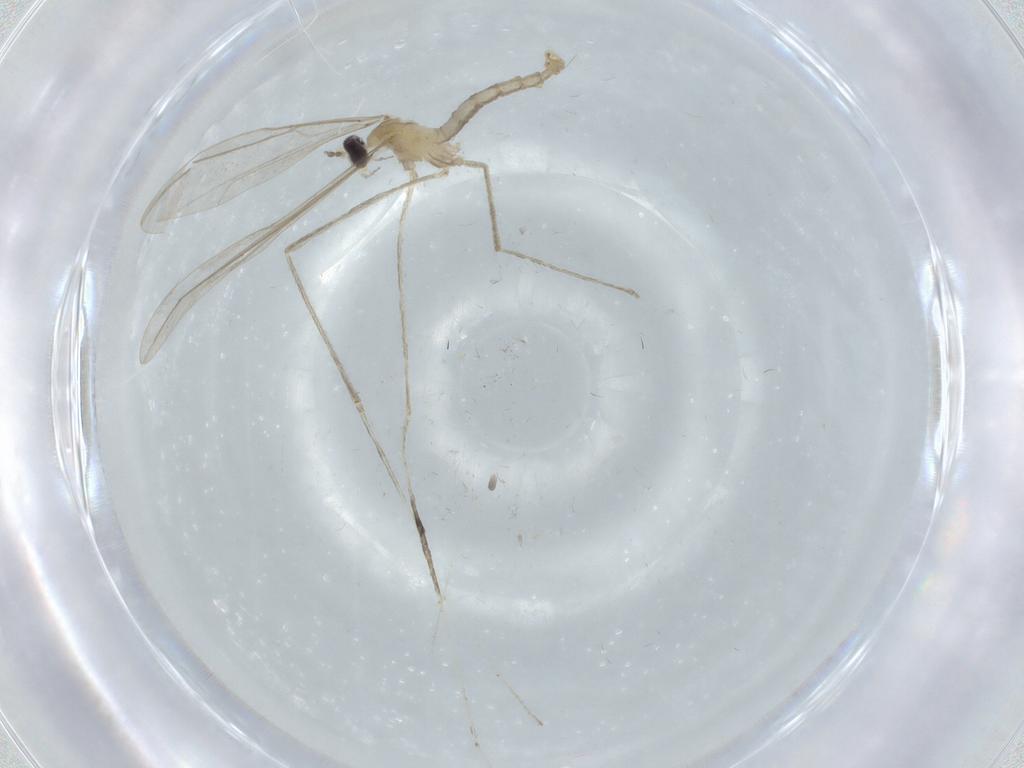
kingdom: Animalia
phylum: Arthropoda
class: Insecta
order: Diptera
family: Cecidomyiidae
